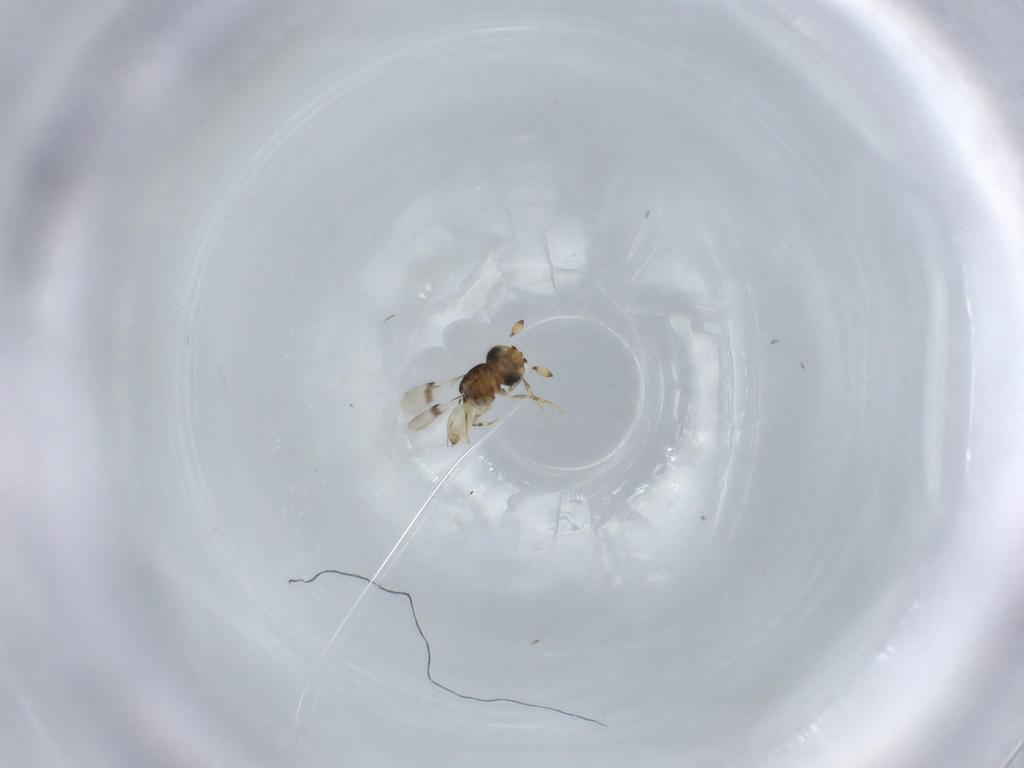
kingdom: Animalia
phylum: Arthropoda
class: Insecta
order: Hymenoptera
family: Scelionidae
